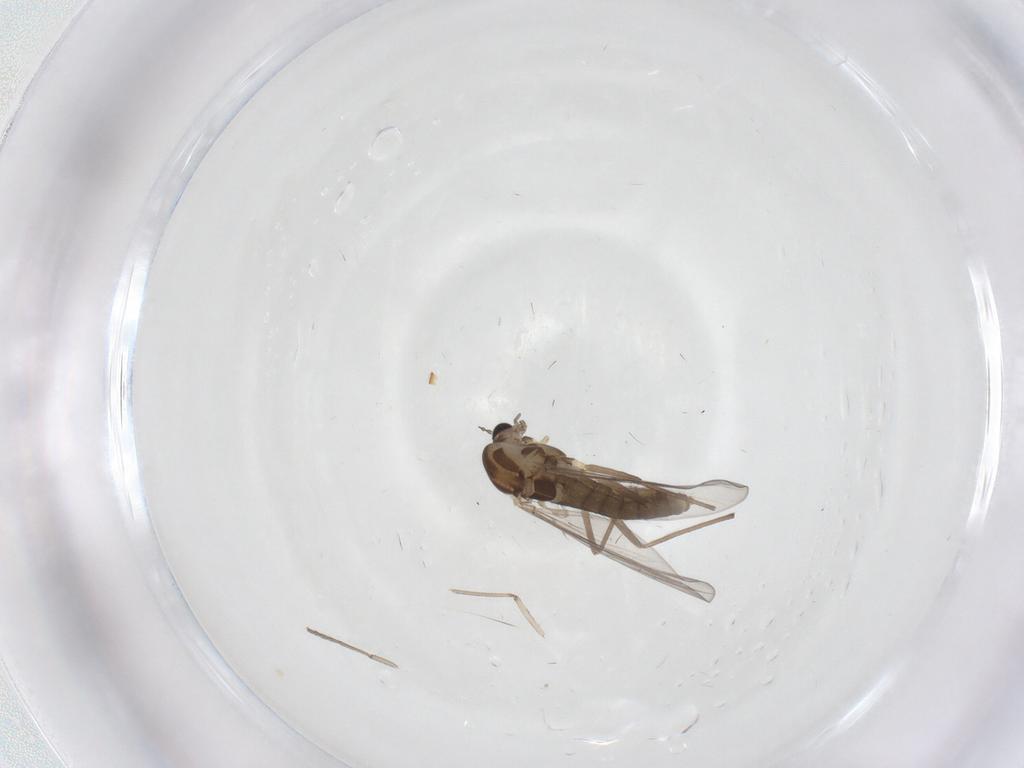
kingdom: Animalia
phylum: Arthropoda
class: Insecta
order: Diptera
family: Chironomidae
